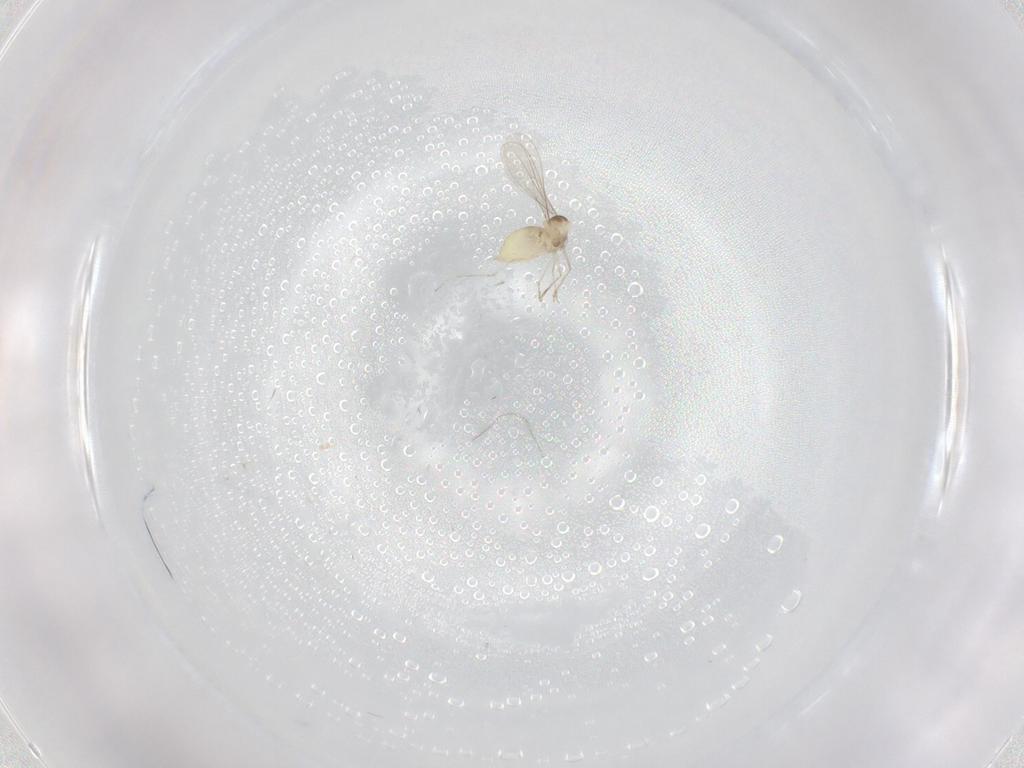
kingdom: Animalia
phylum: Arthropoda
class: Insecta
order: Diptera
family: Cecidomyiidae
